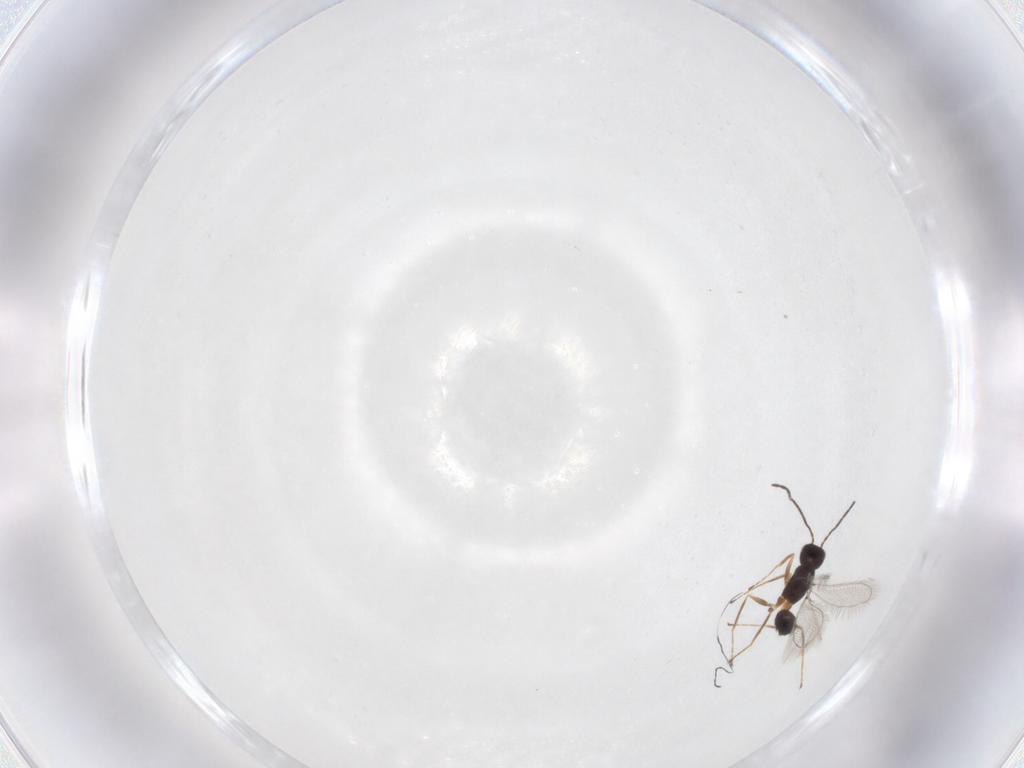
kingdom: Animalia
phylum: Arthropoda
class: Insecta
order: Hymenoptera
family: Mymaridae
